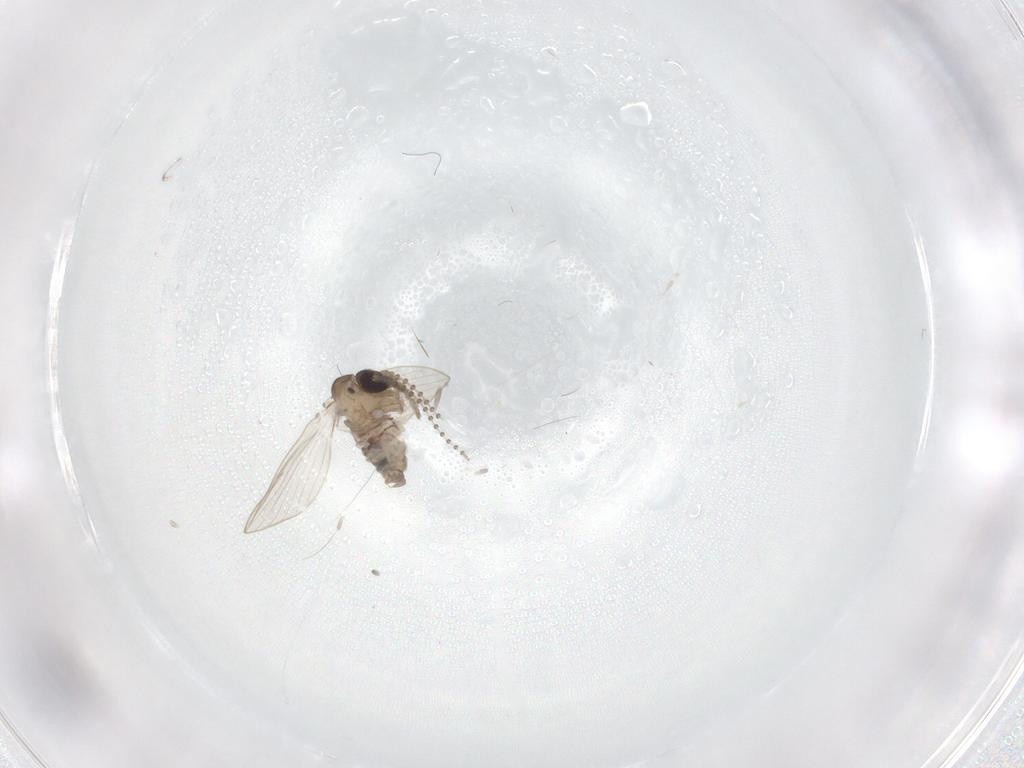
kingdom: Animalia
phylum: Arthropoda
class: Insecta
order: Diptera
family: Psychodidae
